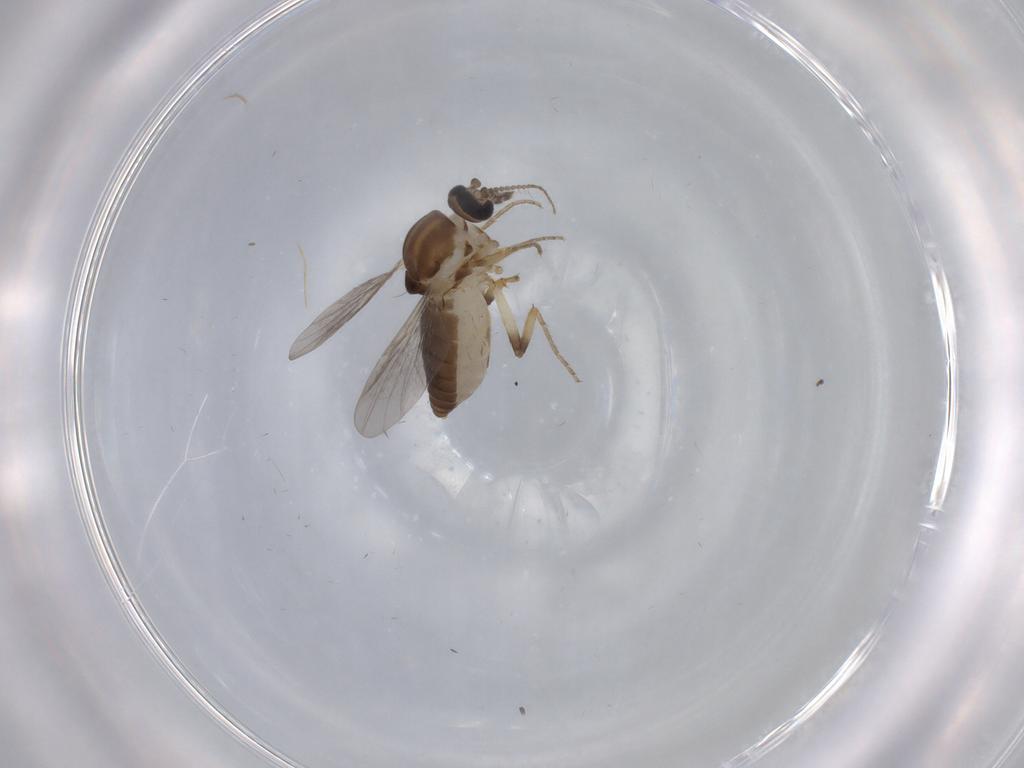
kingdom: Animalia
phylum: Arthropoda
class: Insecta
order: Diptera
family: Ceratopogonidae
